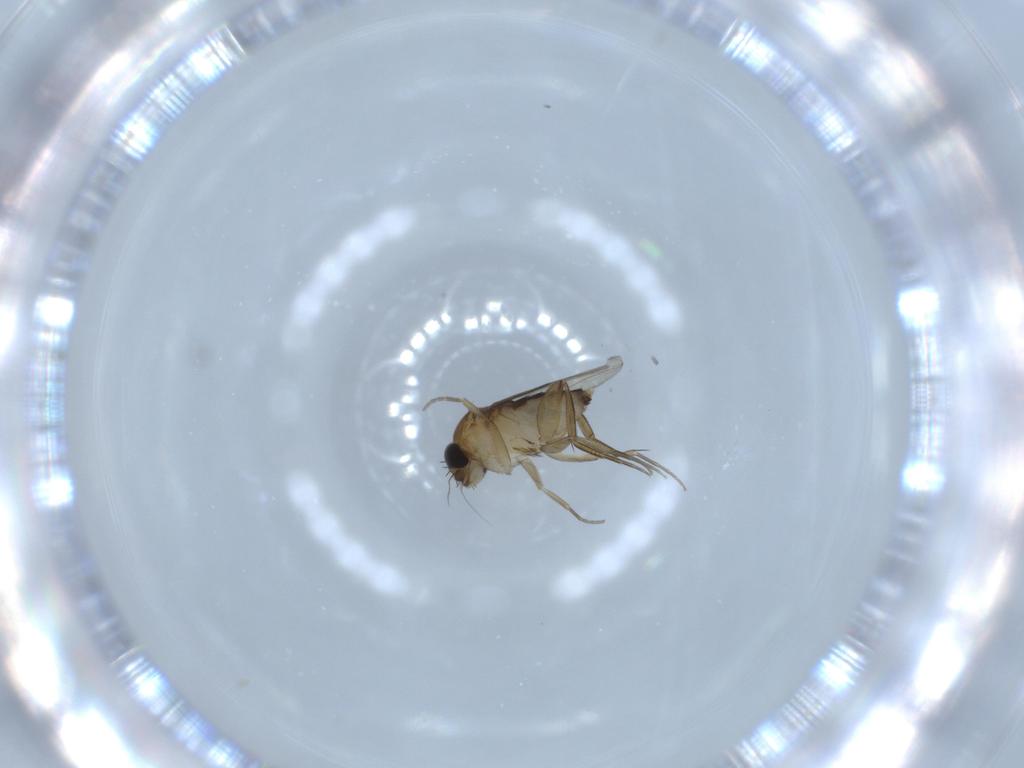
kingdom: Animalia
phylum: Arthropoda
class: Insecta
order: Diptera
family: Phoridae
